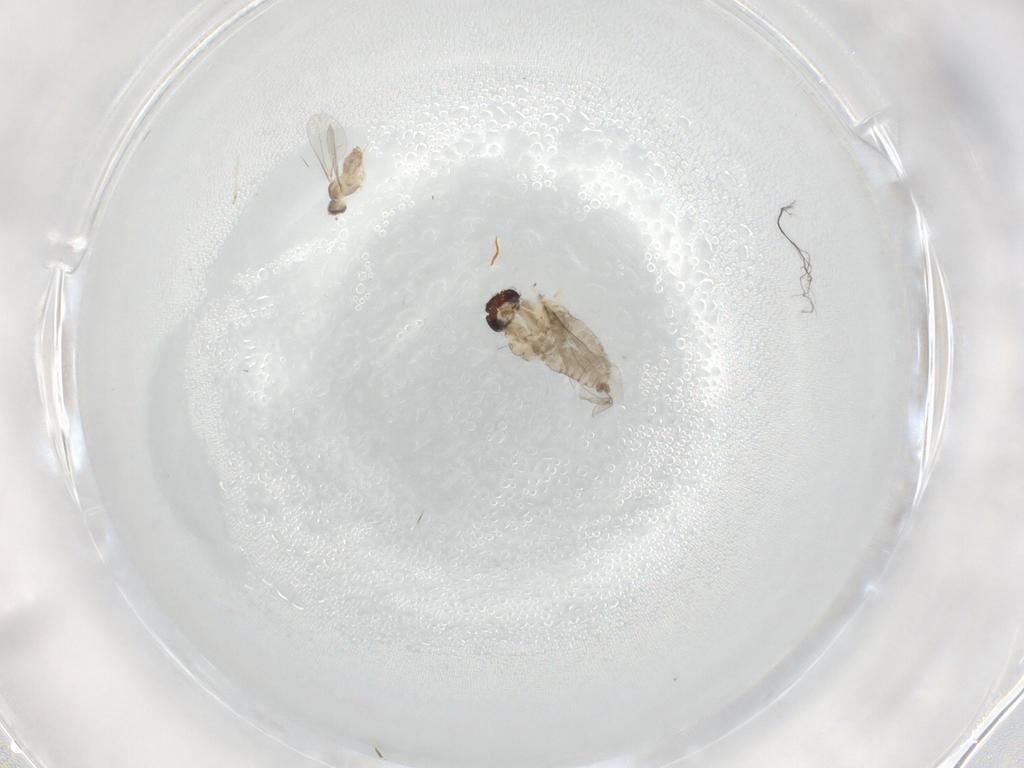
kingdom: Animalia
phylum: Arthropoda
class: Insecta
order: Diptera
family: Cecidomyiidae
